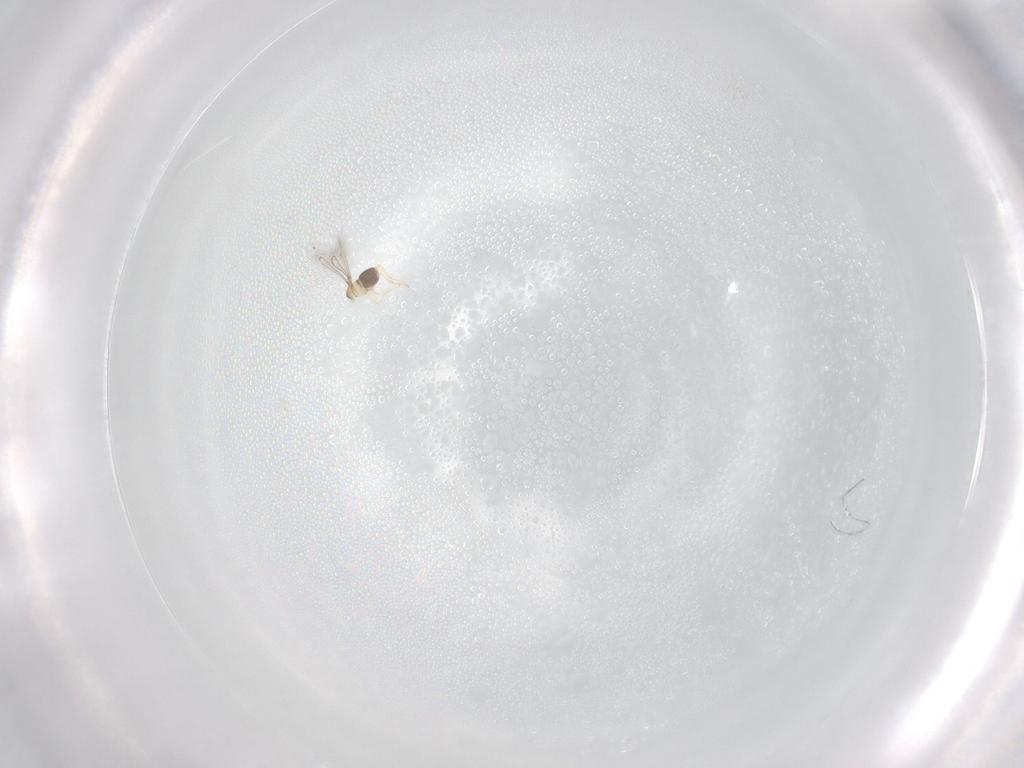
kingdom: Animalia
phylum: Arthropoda
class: Insecta
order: Hymenoptera
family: Mymaridae
